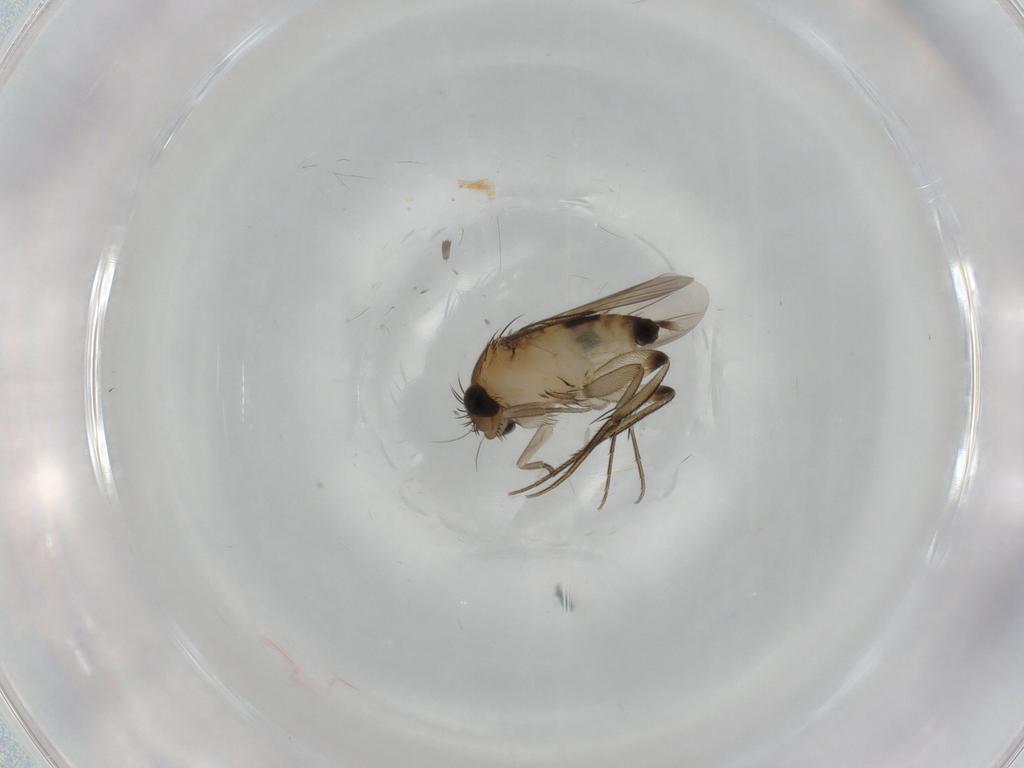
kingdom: Animalia
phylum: Arthropoda
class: Insecta
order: Diptera
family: Phoridae
